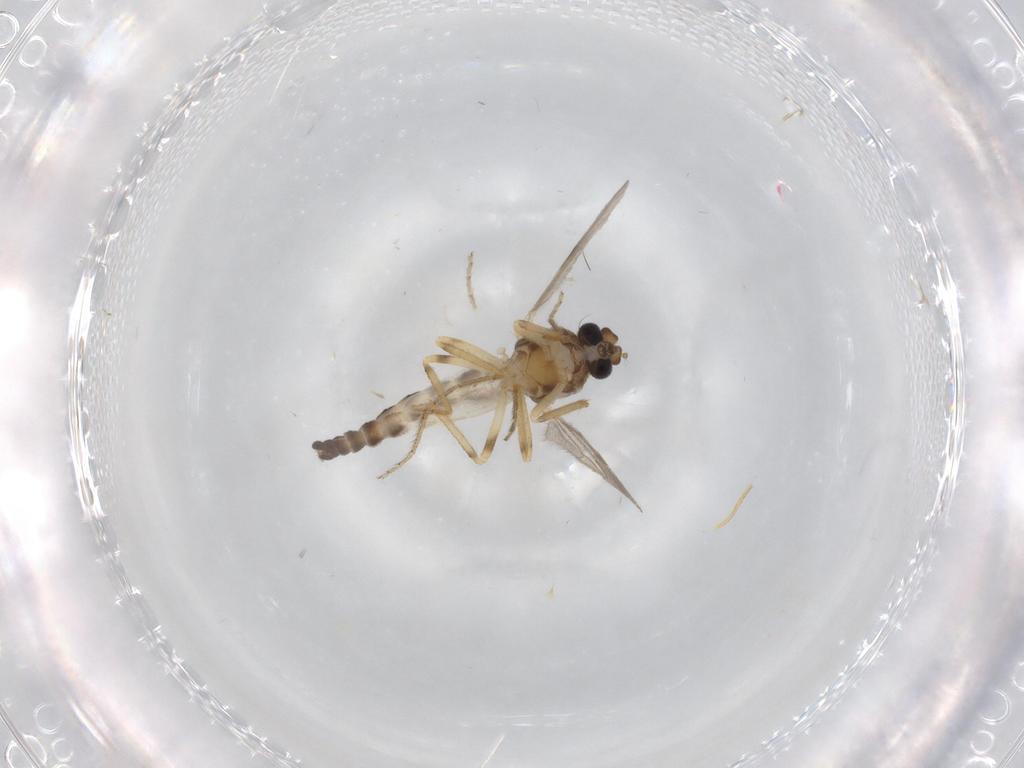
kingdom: Animalia
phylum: Arthropoda
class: Insecta
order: Diptera
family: Ceratopogonidae
